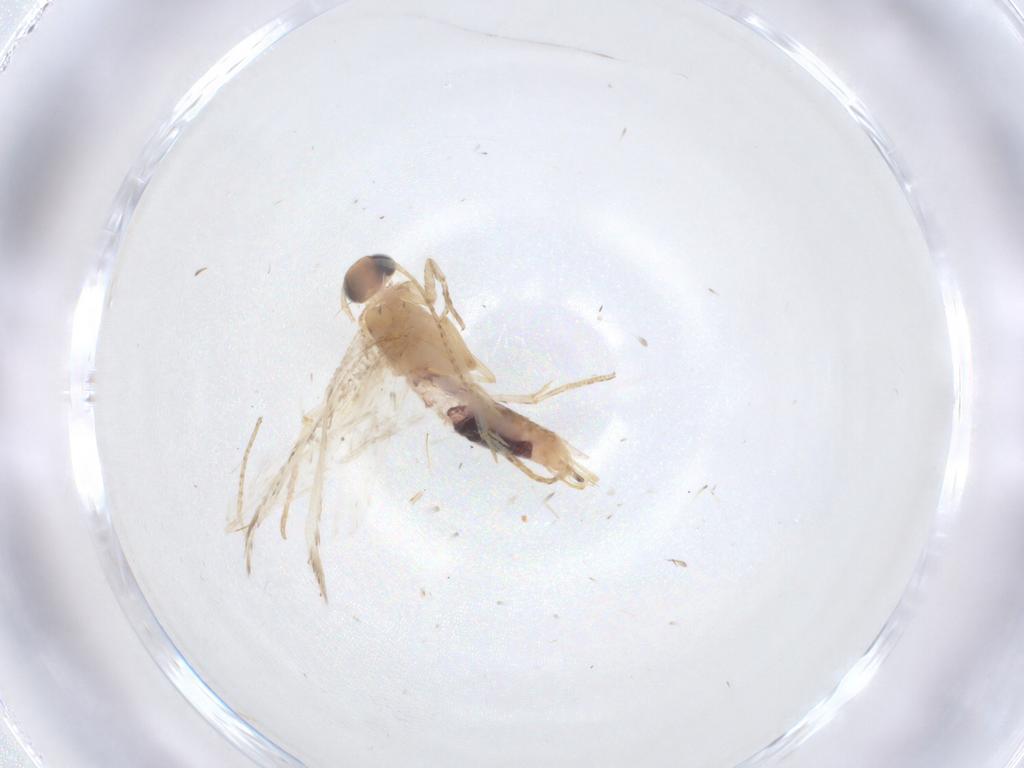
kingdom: Animalia
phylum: Arthropoda
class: Insecta
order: Lepidoptera
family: Gelechiidae
